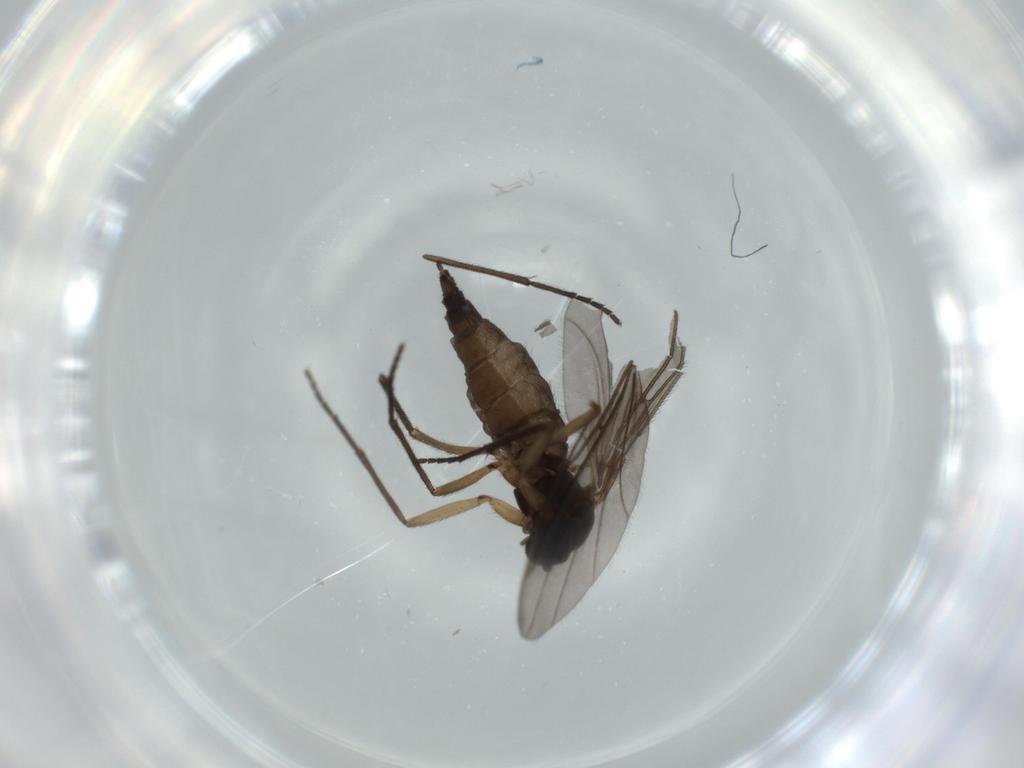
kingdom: Animalia
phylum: Arthropoda
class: Insecta
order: Diptera
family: Sciaridae
